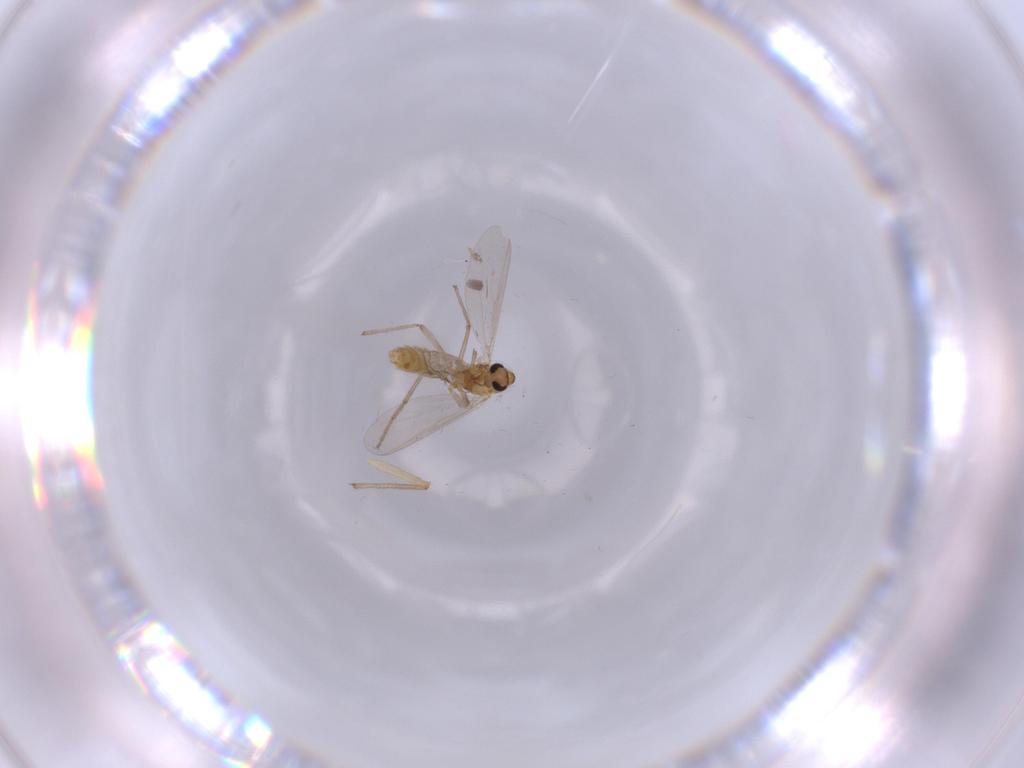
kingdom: Animalia
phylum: Arthropoda
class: Insecta
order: Diptera
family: Chironomidae
